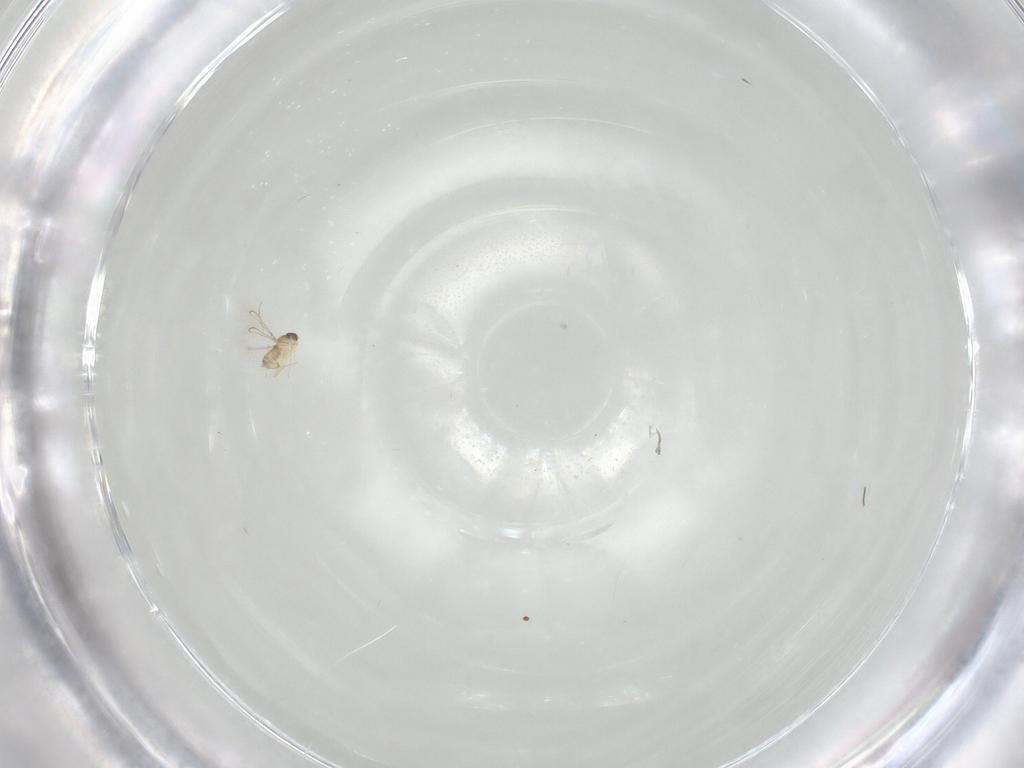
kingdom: Animalia
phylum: Arthropoda
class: Insecta
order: Hymenoptera
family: Mymaridae
